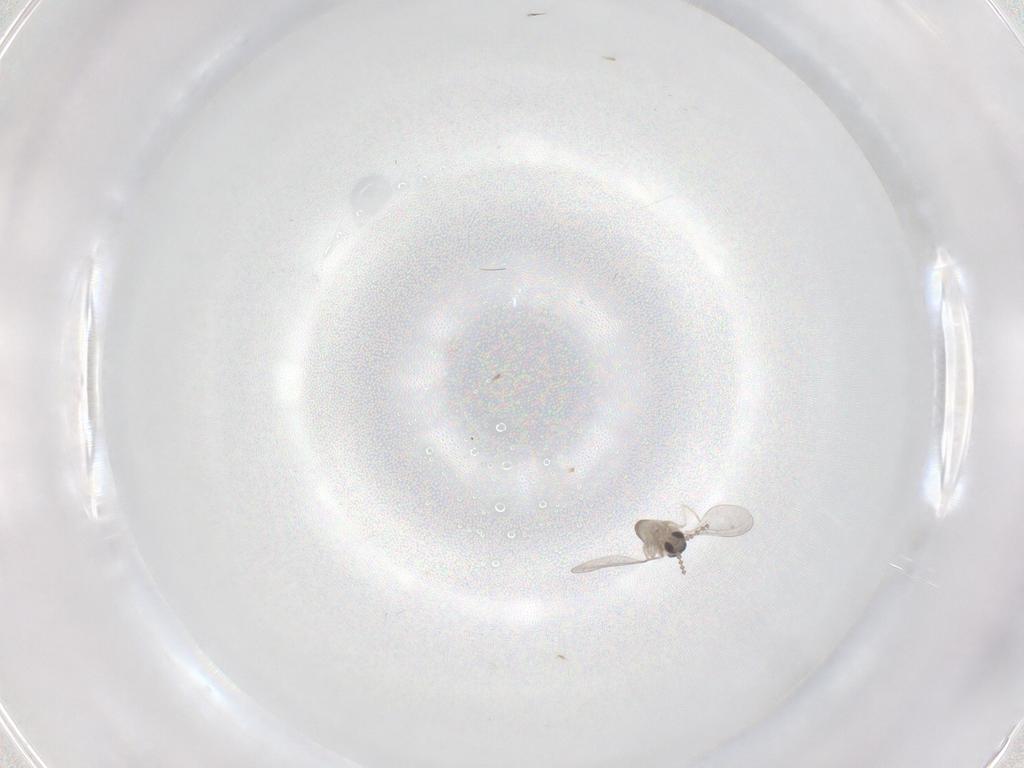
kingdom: Animalia
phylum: Arthropoda
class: Insecta
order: Diptera
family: Cecidomyiidae
